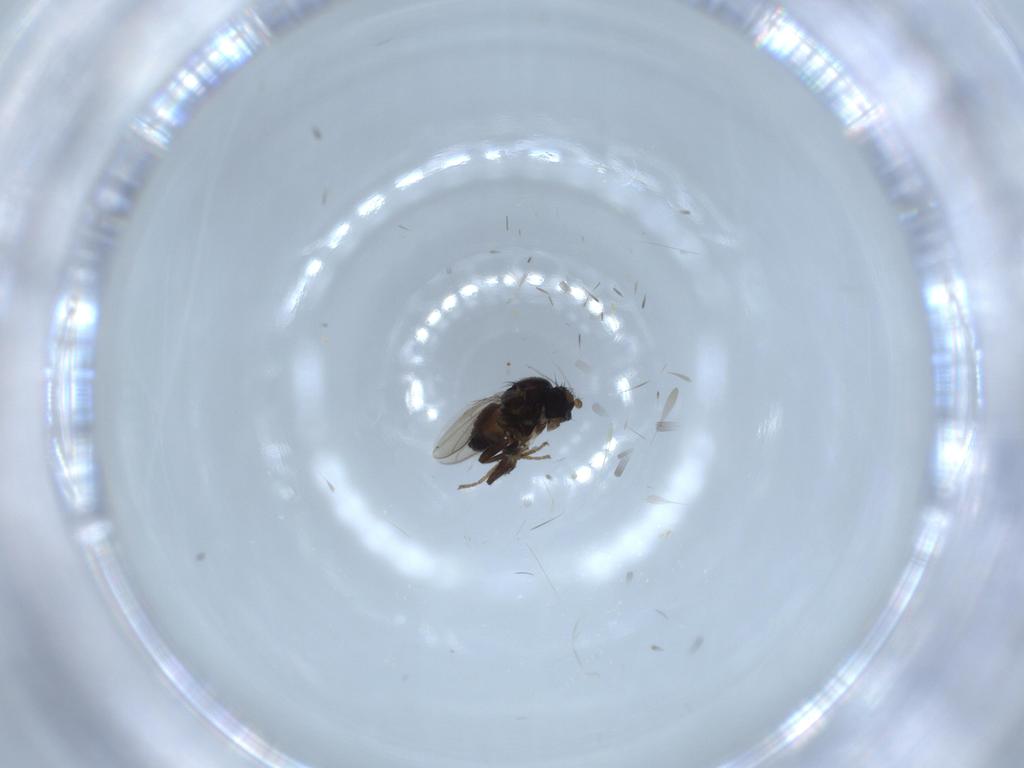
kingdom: Animalia
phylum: Arthropoda
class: Insecta
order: Diptera
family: Sphaeroceridae
